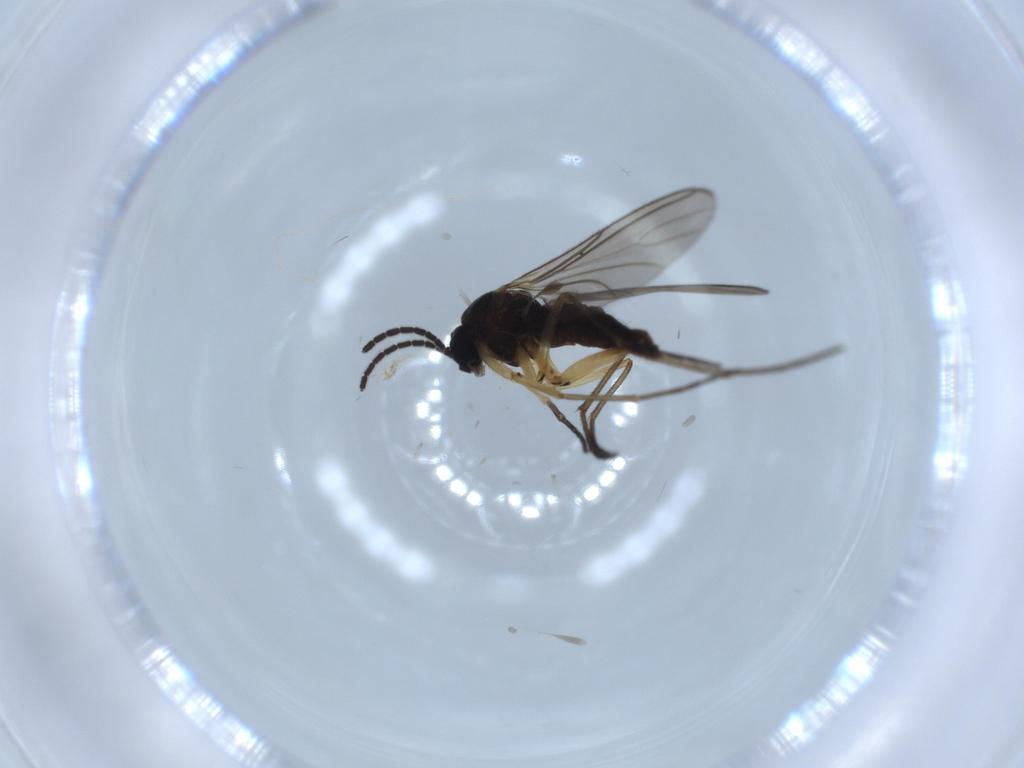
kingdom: Animalia
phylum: Arthropoda
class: Insecta
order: Diptera
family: Sciaridae
